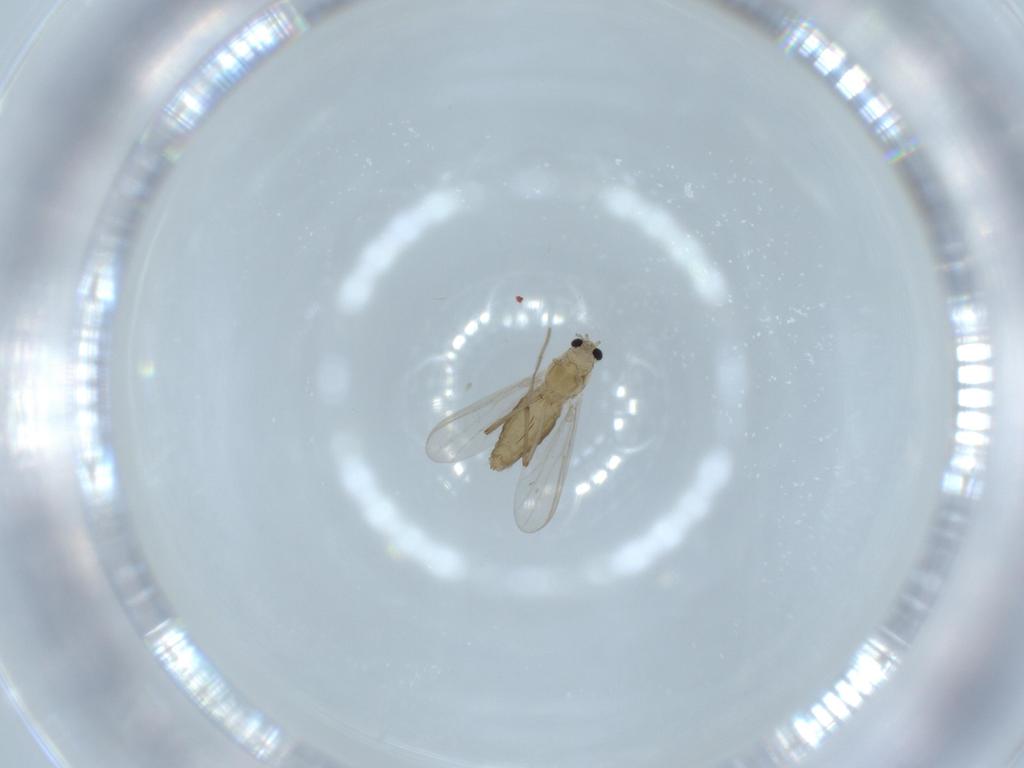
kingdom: Animalia
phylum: Arthropoda
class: Insecta
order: Diptera
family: Chironomidae
